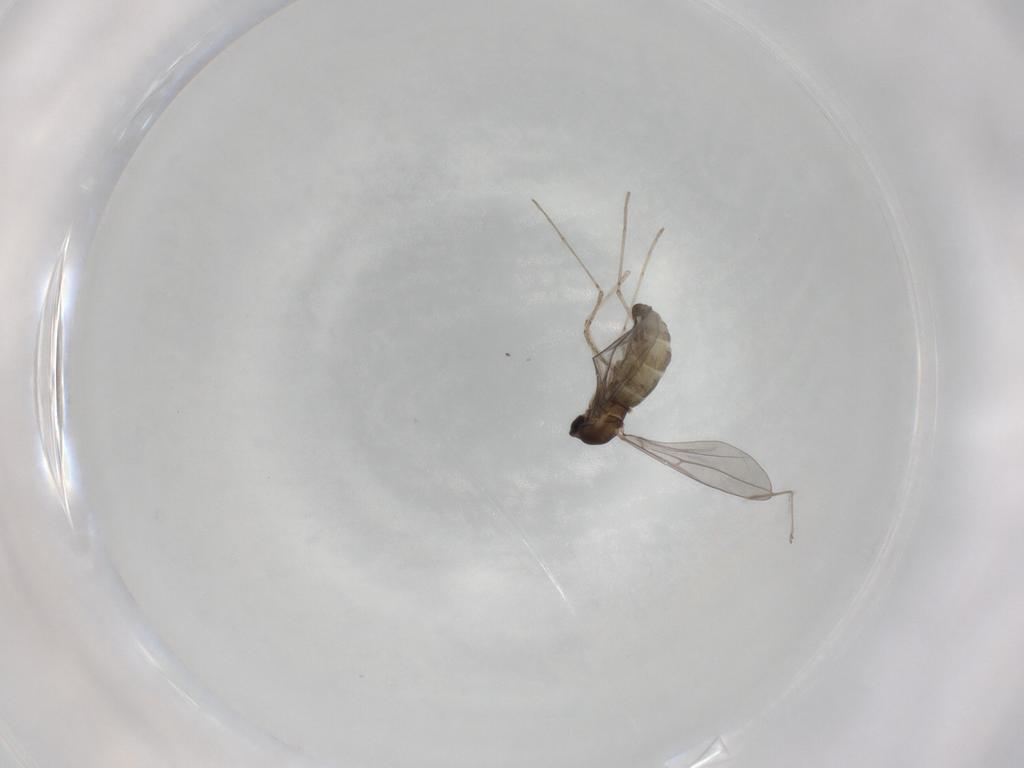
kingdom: Animalia
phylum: Arthropoda
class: Insecta
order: Diptera
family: Cecidomyiidae
